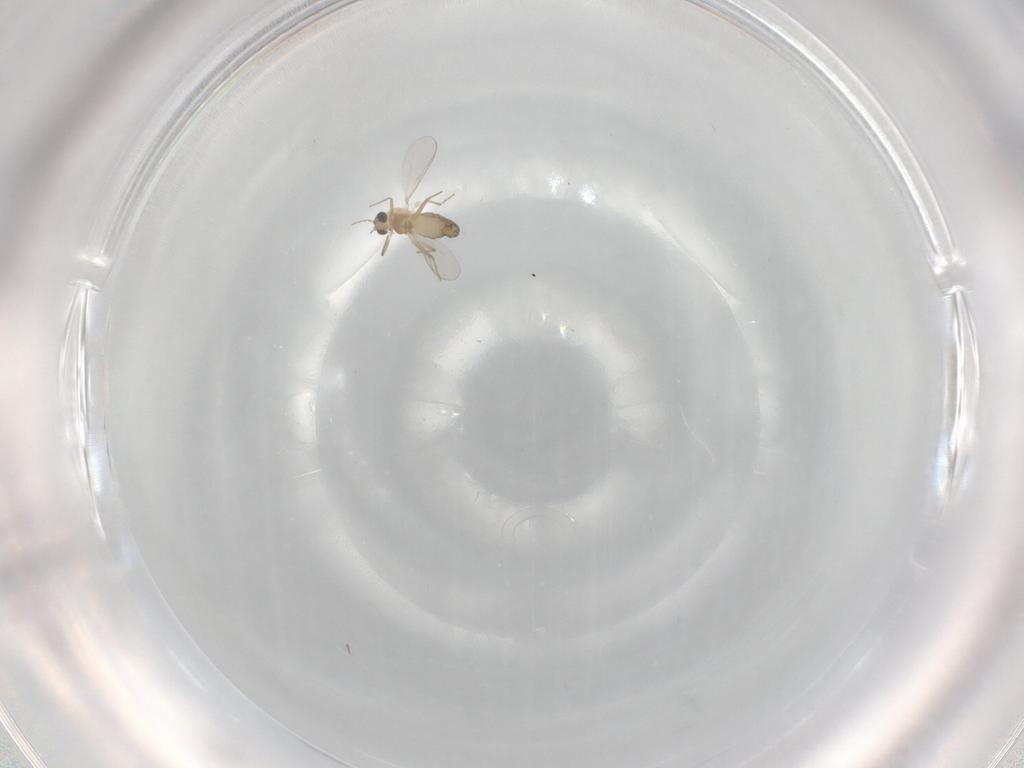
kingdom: Animalia
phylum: Arthropoda
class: Insecta
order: Diptera
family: Chironomidae
